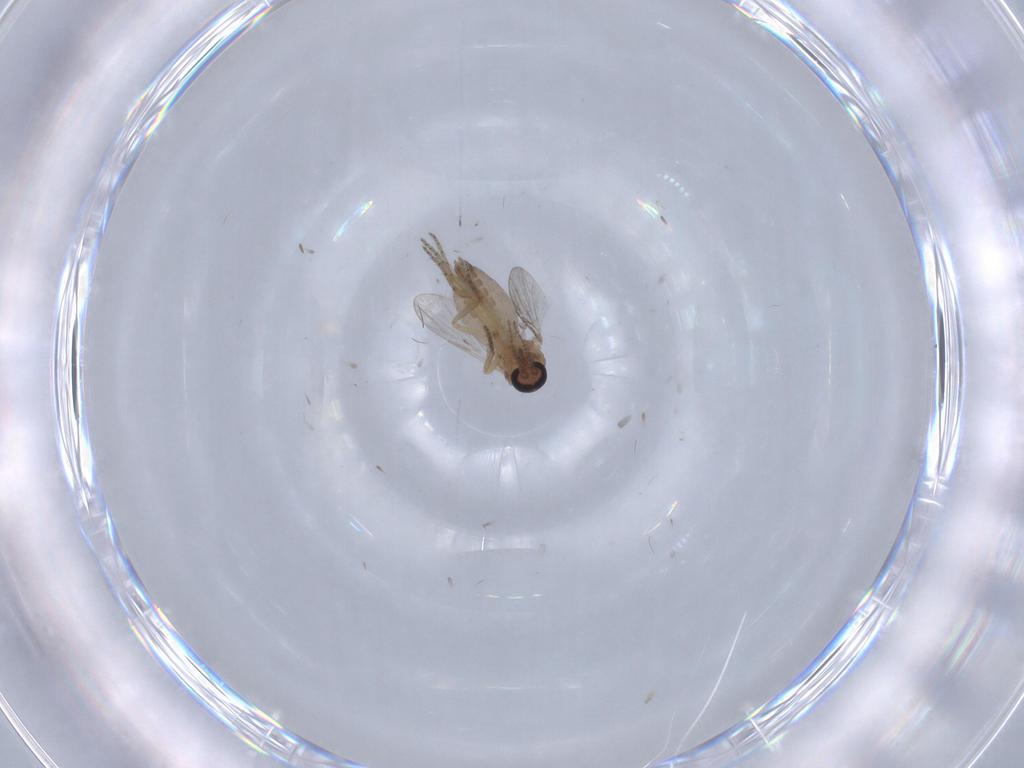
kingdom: Animalia
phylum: Arthropoda
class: Insecta
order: Diptera
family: Ceratopogonidae
